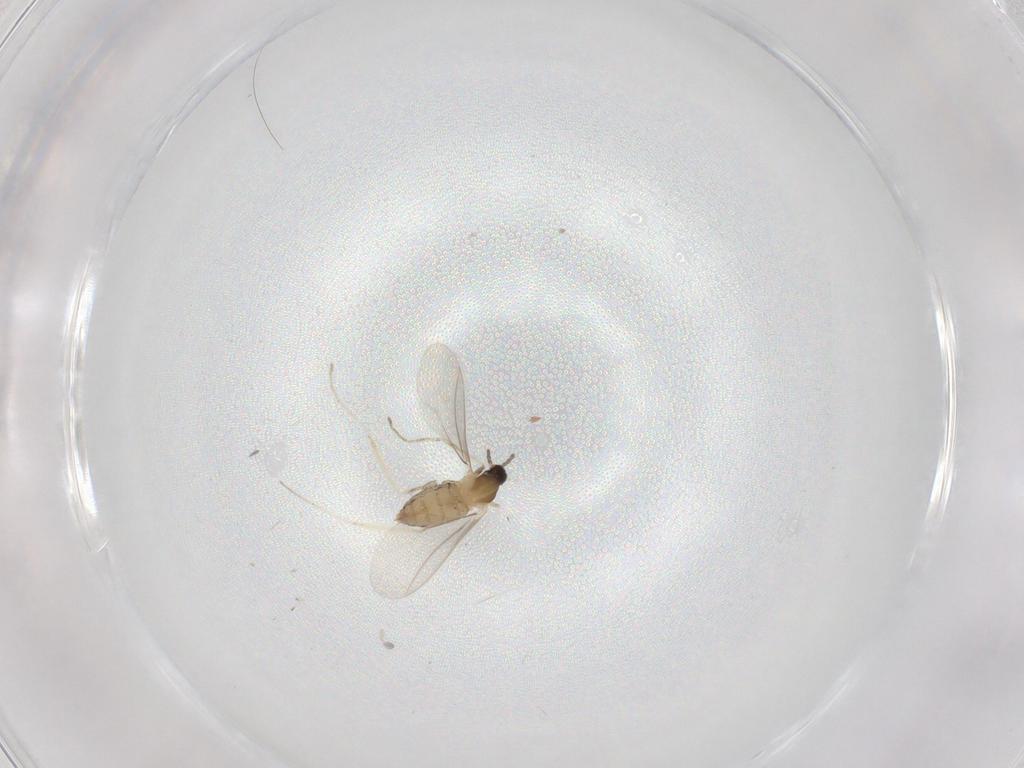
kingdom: Animalia
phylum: Arthropoda
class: Insecta
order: Diptera
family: Cecidomyiidae
